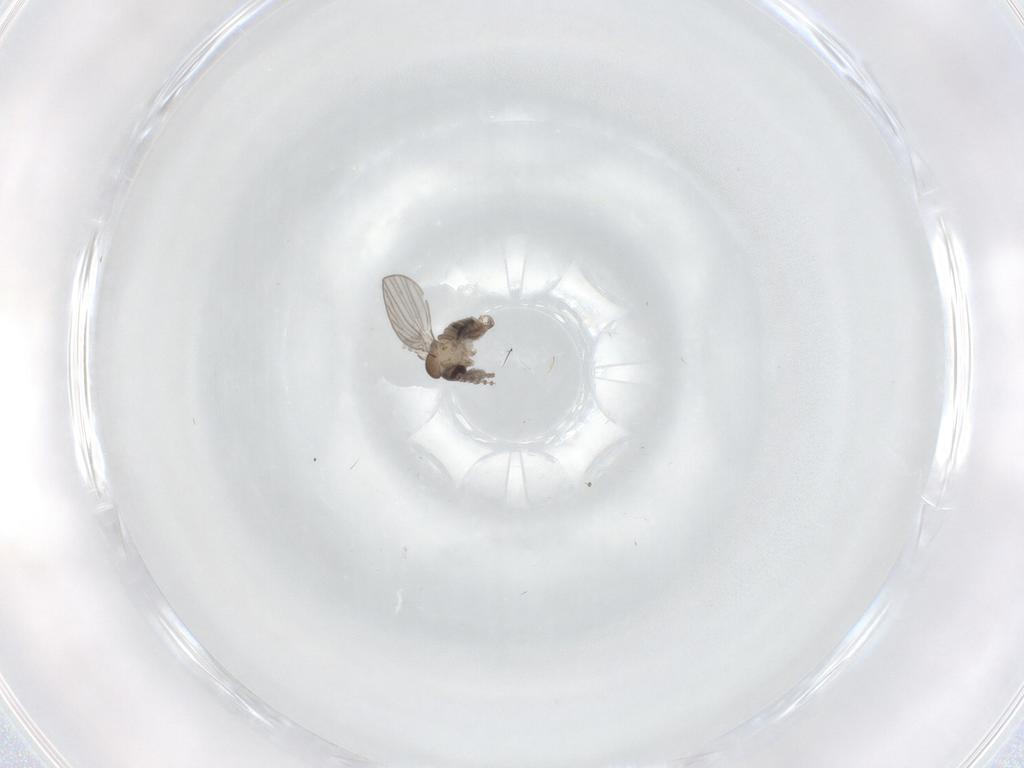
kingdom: Animalia
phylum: Arthropoda
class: Insecta
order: Diptera
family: Psychodidae
